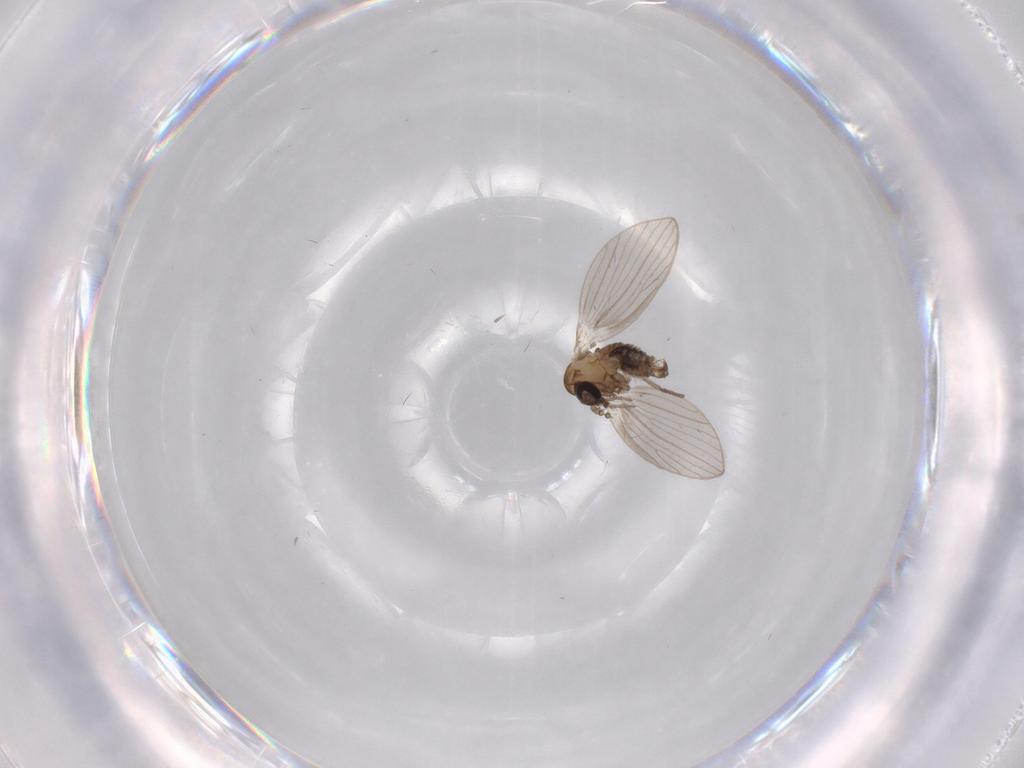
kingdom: Animalia
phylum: Arthropoda
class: Insecta
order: Diptera
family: Psychodidae
